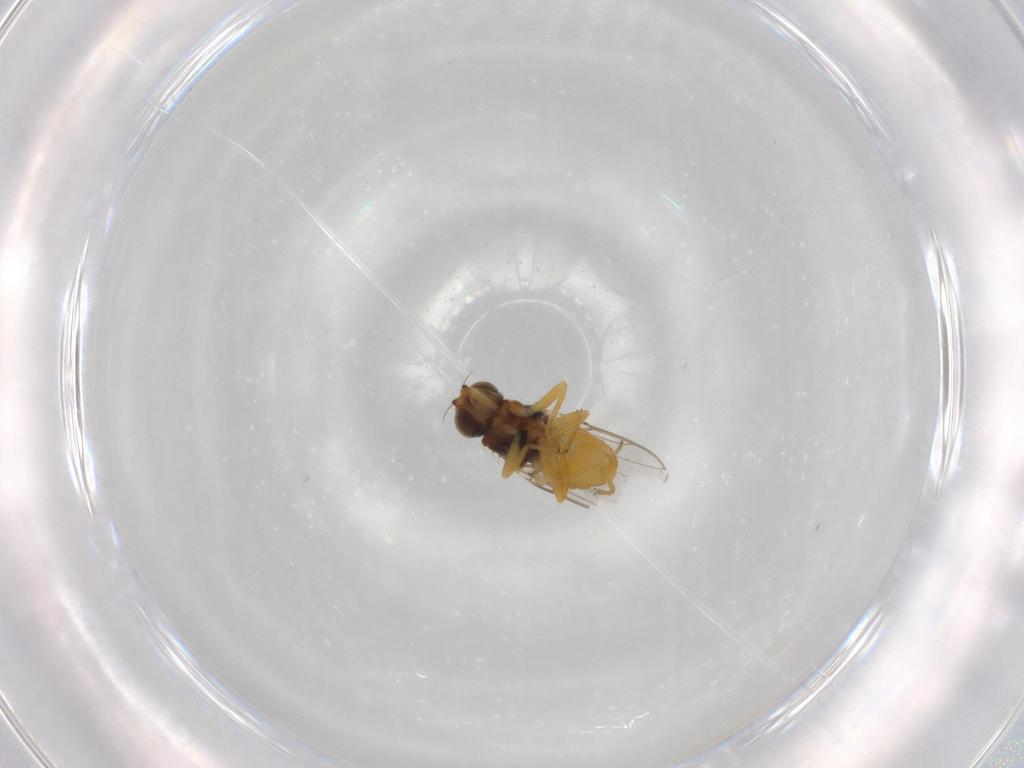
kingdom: Animalia
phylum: Arthropoda
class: Insecta
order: Diptera
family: Chloropidae
